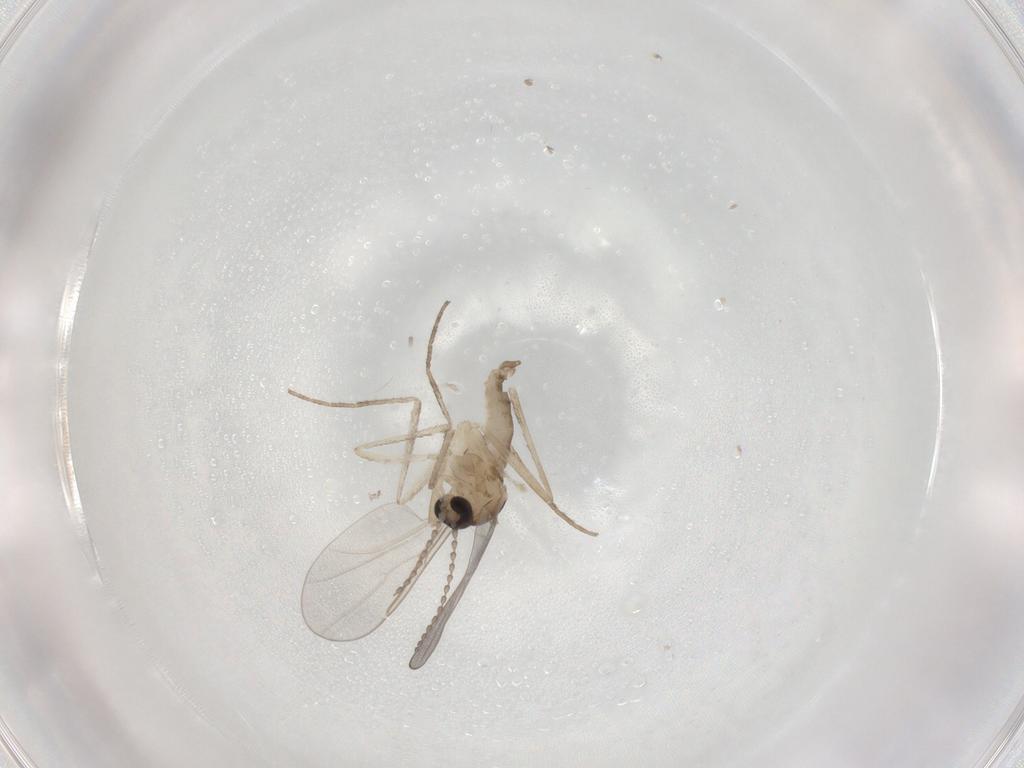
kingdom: Animalia
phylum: Arthropoda
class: Insecta
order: Diptera
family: Cecidomyiidae
